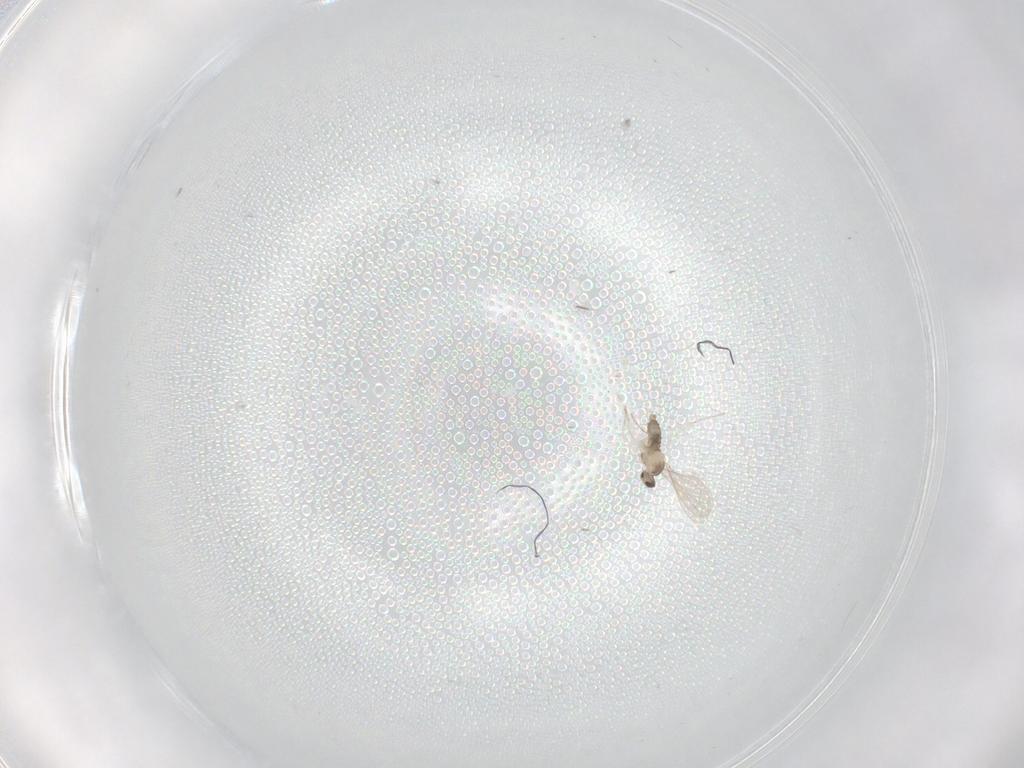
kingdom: Animalia
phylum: Arthropoda
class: Insecta
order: Diptera
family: Cecidomyiidae
